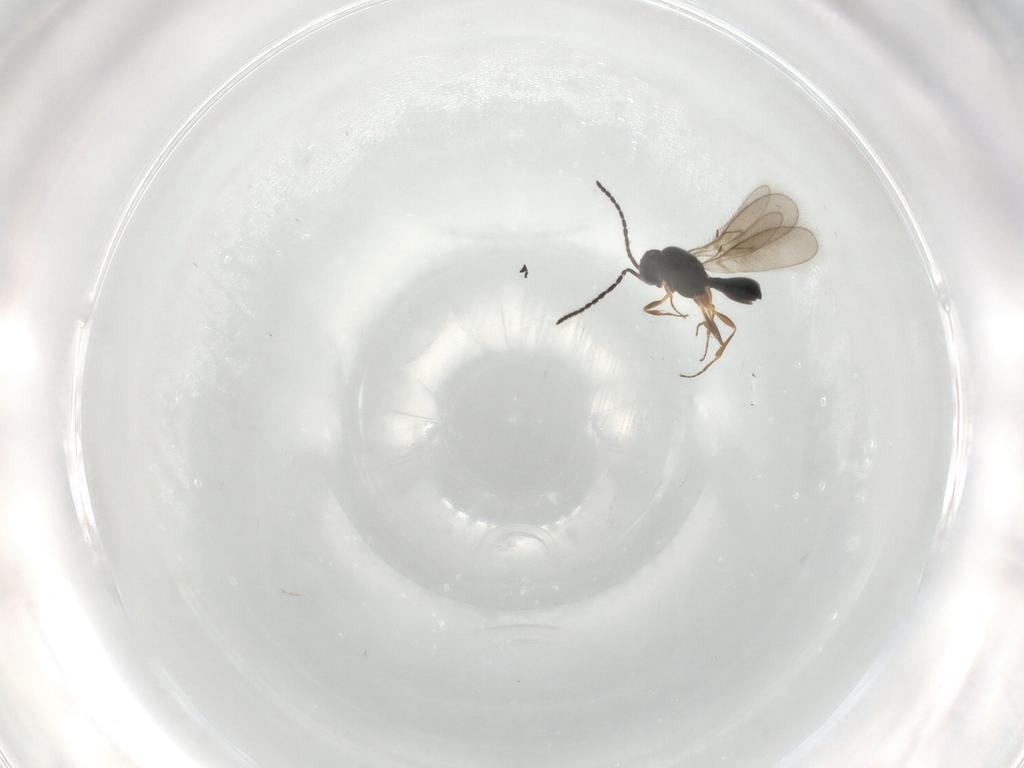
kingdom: Animalia
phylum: Arthropoda
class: Insecta
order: Hymenoptera
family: Scelionidae
